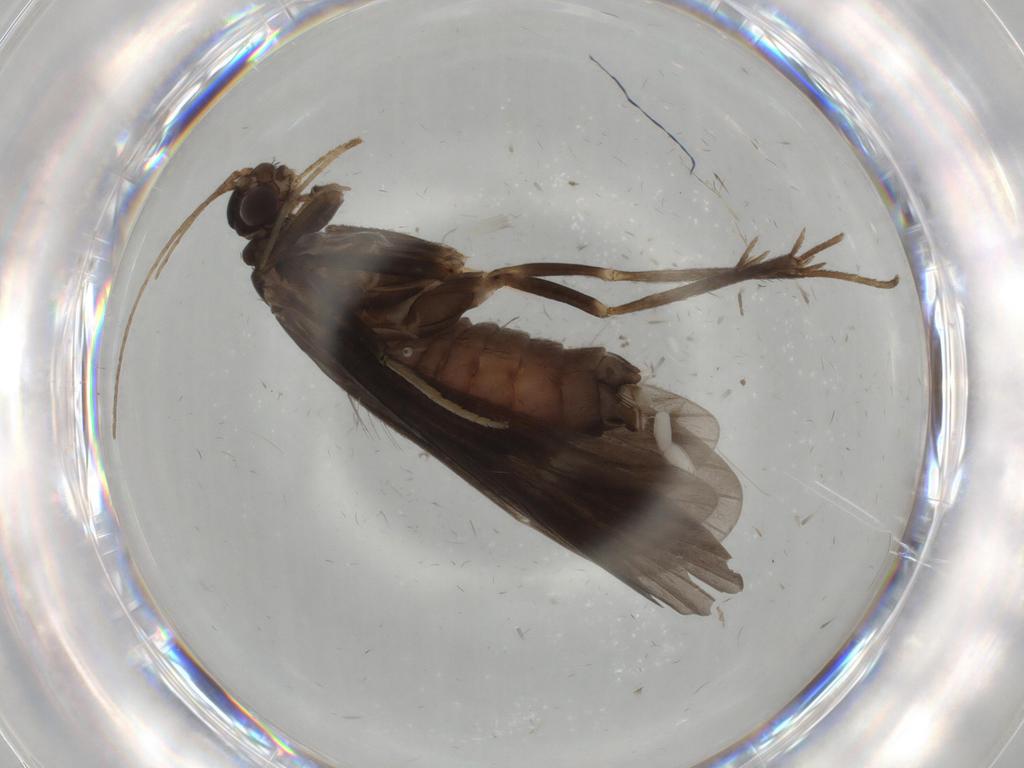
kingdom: Animalia
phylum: Arthropoda
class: Insecta
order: Trichoptera
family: Hydropsychidae
